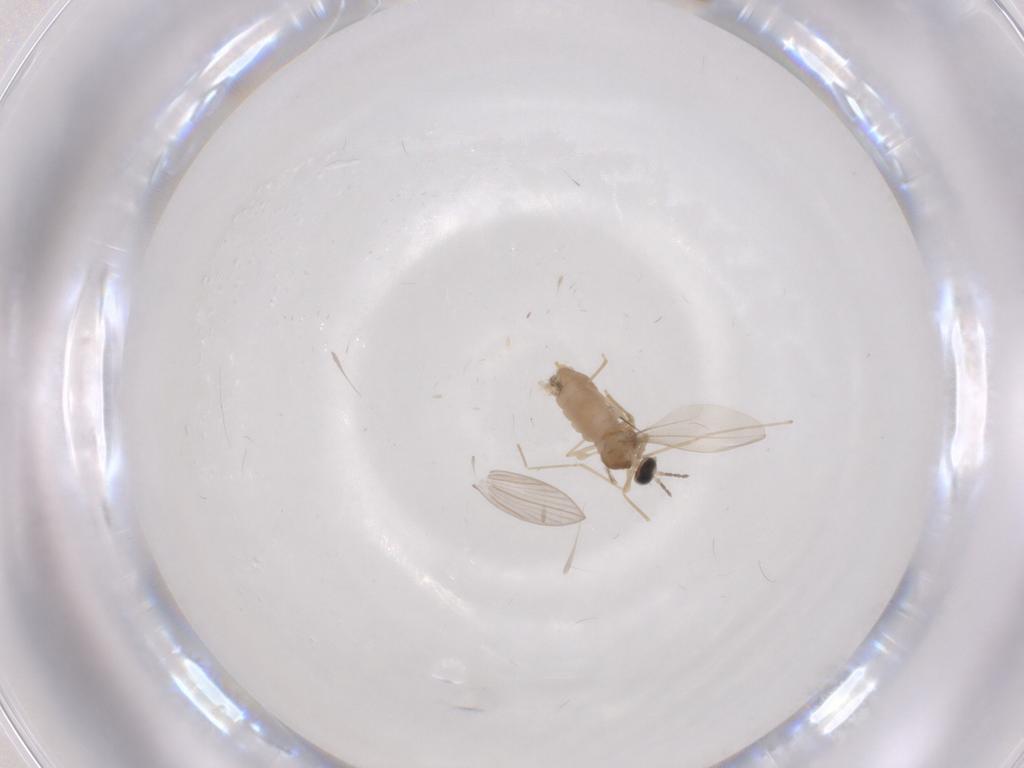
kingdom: Animalia
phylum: Arthropoda
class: Insecta
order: Diptera
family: Cecidomyiidae
